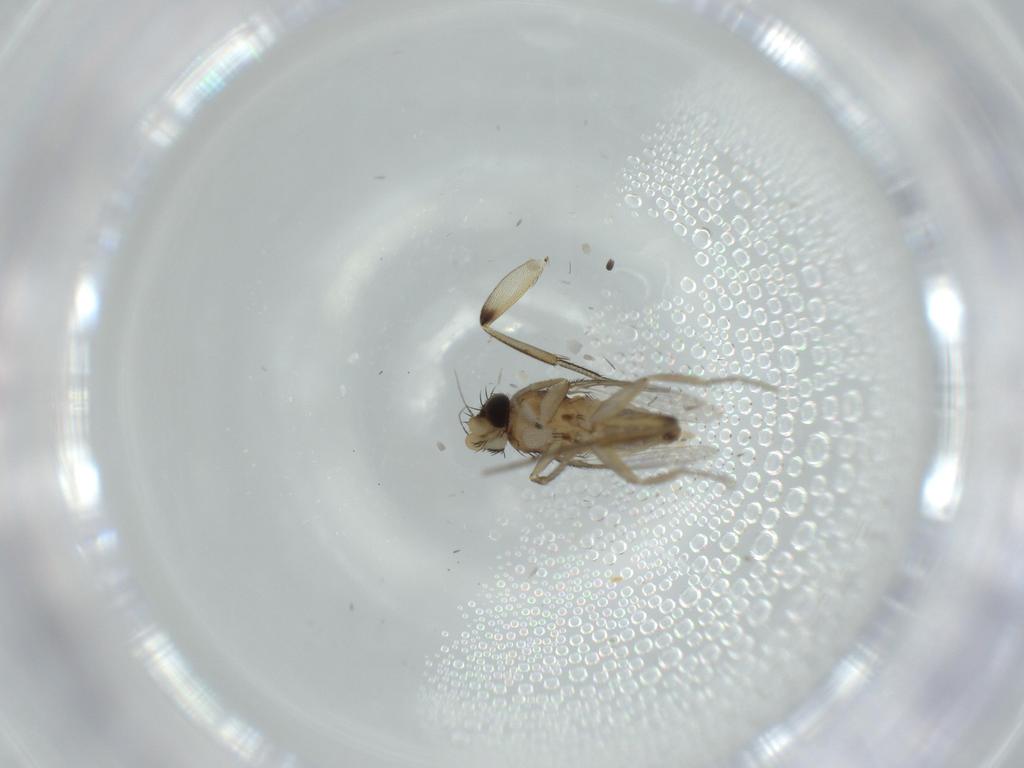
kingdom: Animalia
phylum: Arthropoda
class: Insecta
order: Diptera
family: Phoridae
